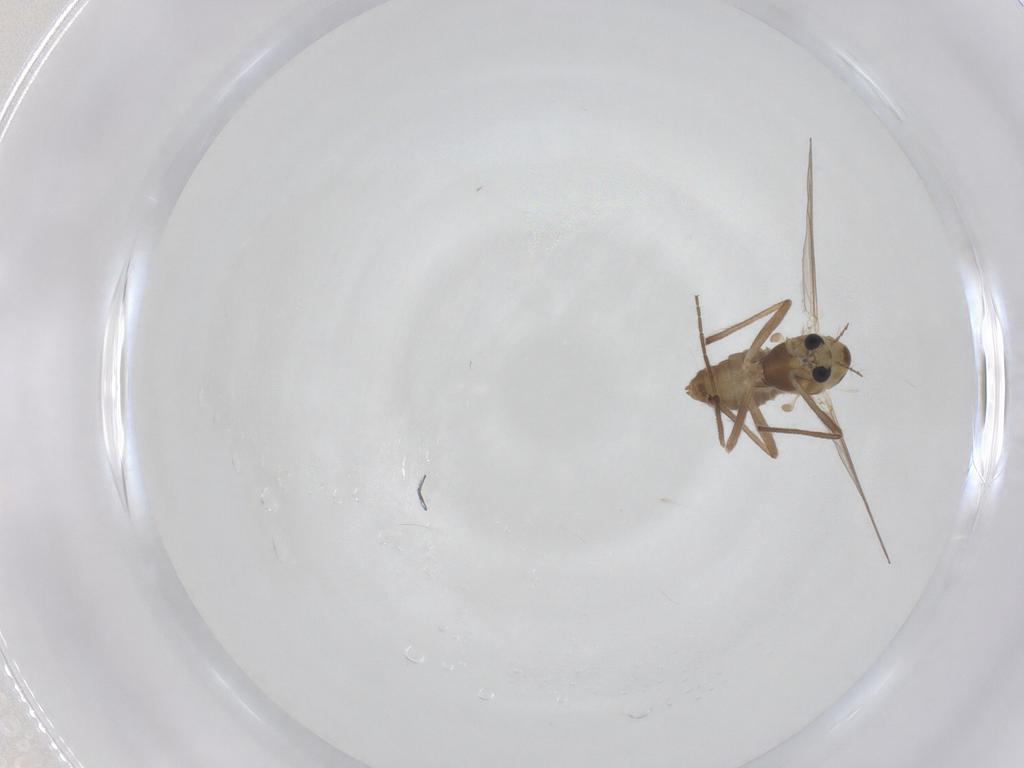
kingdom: Animalia
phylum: Arthropoda
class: Insecta
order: Diptera
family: Chironomidae
